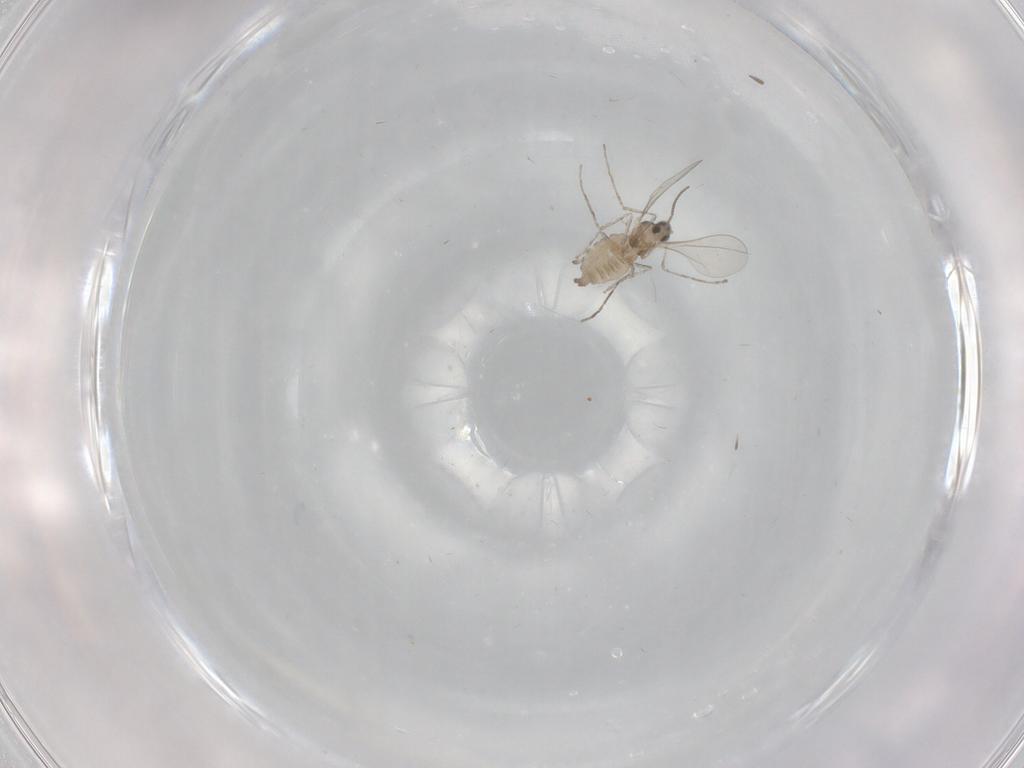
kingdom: Animalia
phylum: Arthropoda
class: Insecta
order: Diptera
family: Cecidomyiidae
